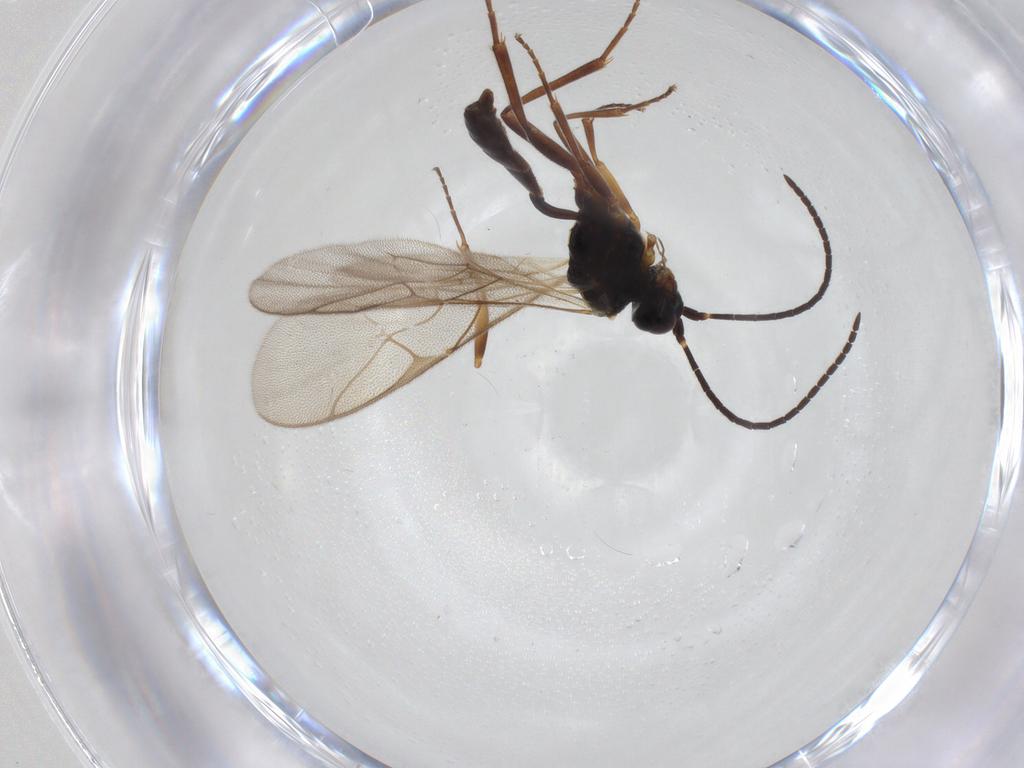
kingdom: Animalia
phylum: Arthropoda
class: Insecta
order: Hymenoptera
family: Ichneumonidae
